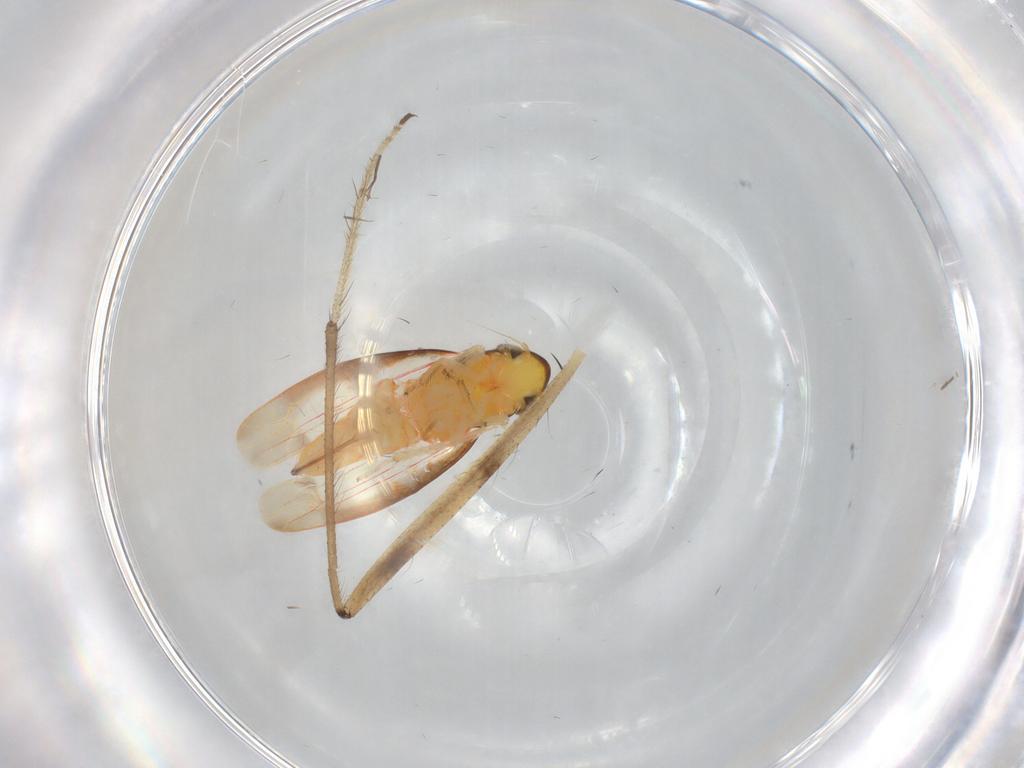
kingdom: Animalia
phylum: Arthropoda
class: Insecta
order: Hemiptera
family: Cicadellidae
